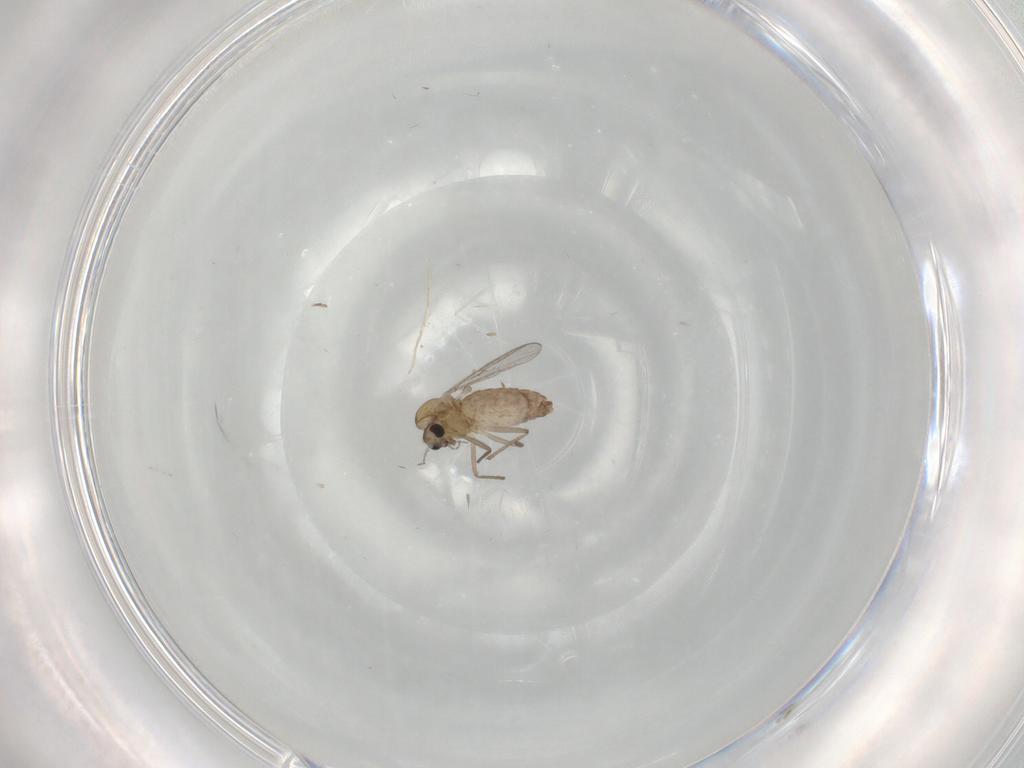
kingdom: Animalia
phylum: Arthropoda
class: Insecta
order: Diptera
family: Chironomidae
